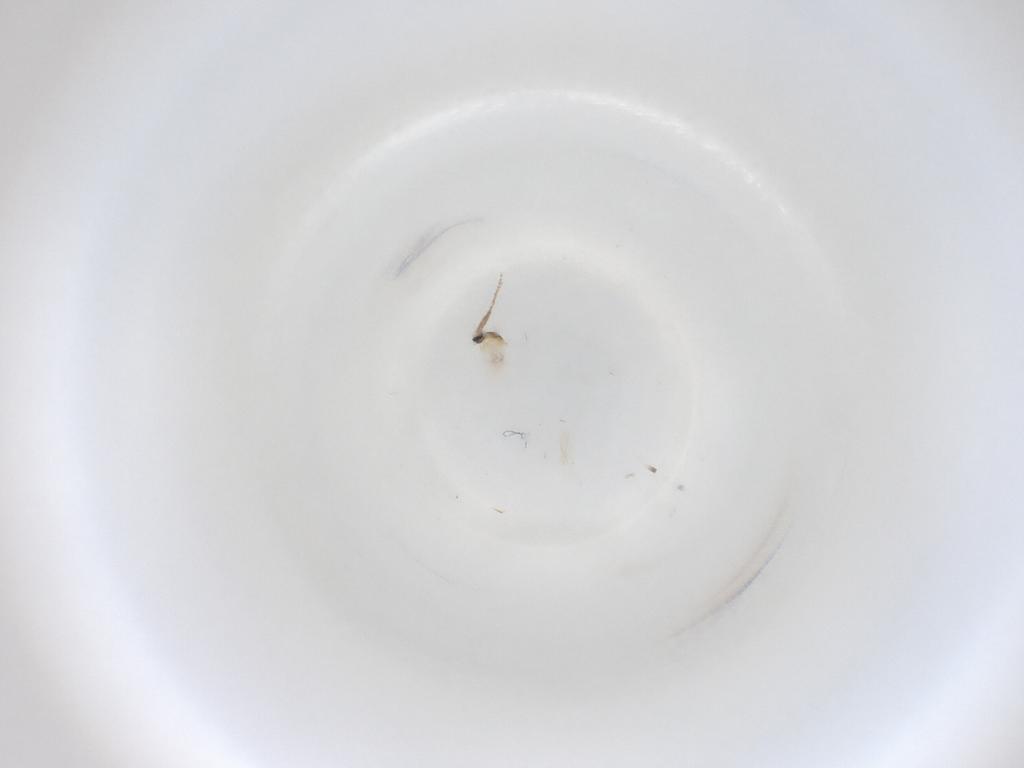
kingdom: Animalia
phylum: Arthropoda
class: Insecta
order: Diptera
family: Cecidomyiidae
